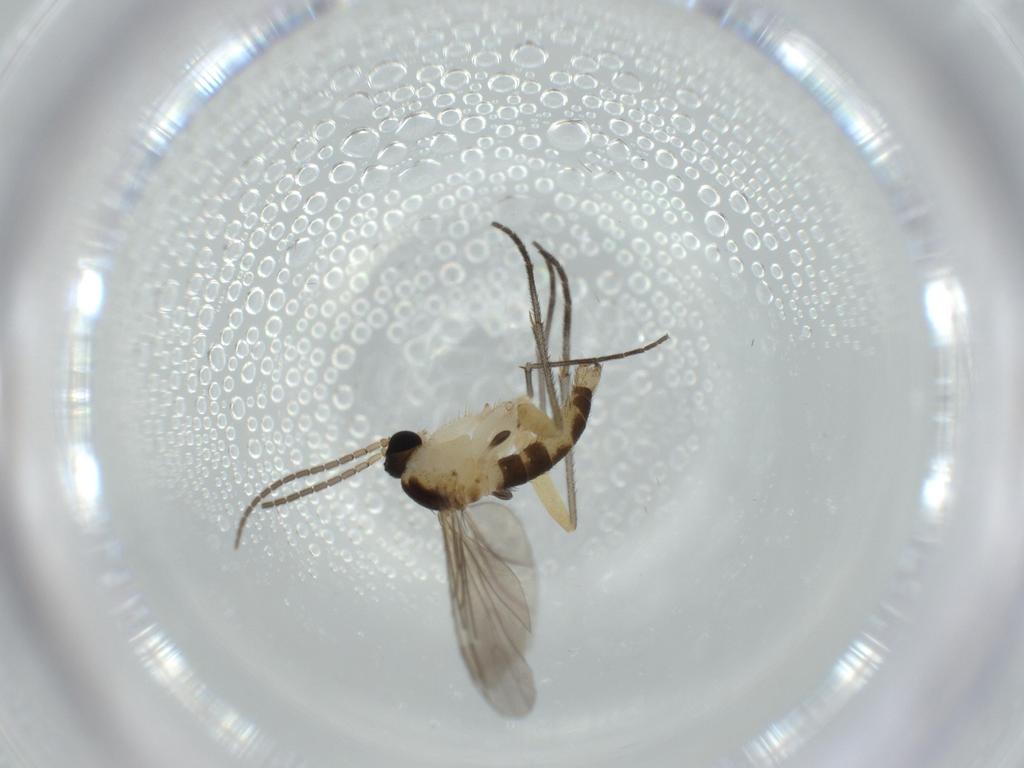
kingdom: Animalia
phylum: Arthropoda
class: Insecta
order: Diptera
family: Sciaridae
